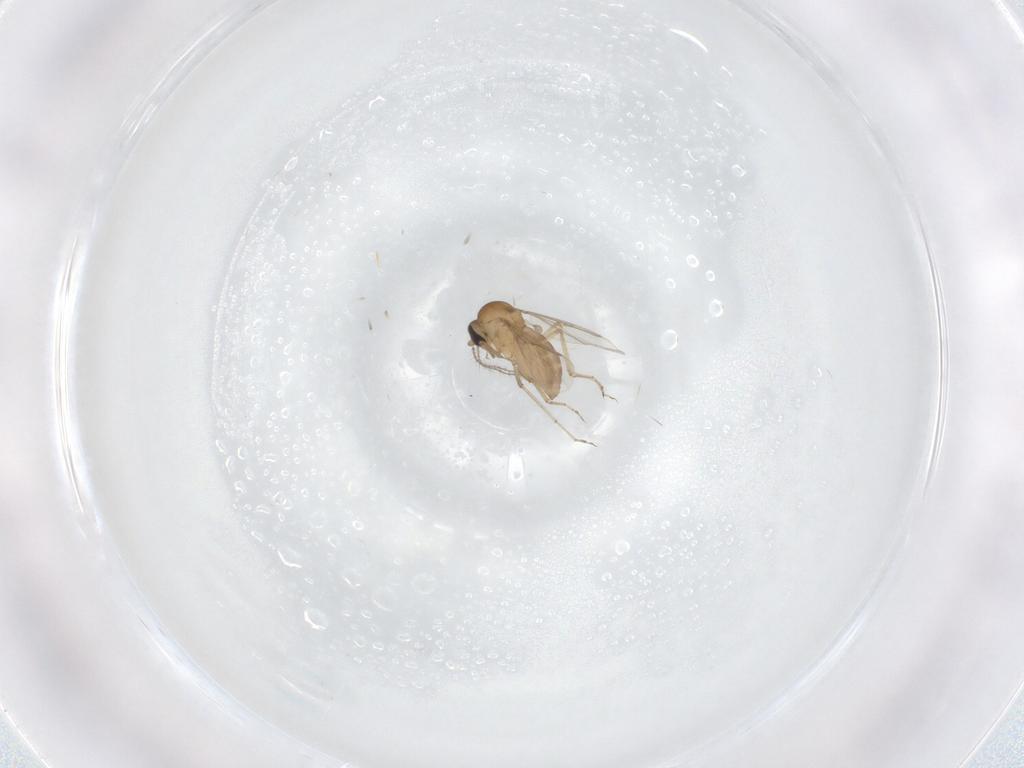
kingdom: Animalia
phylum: Arthropoda
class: Insecta
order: Diptera
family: Ceratopogonidae
